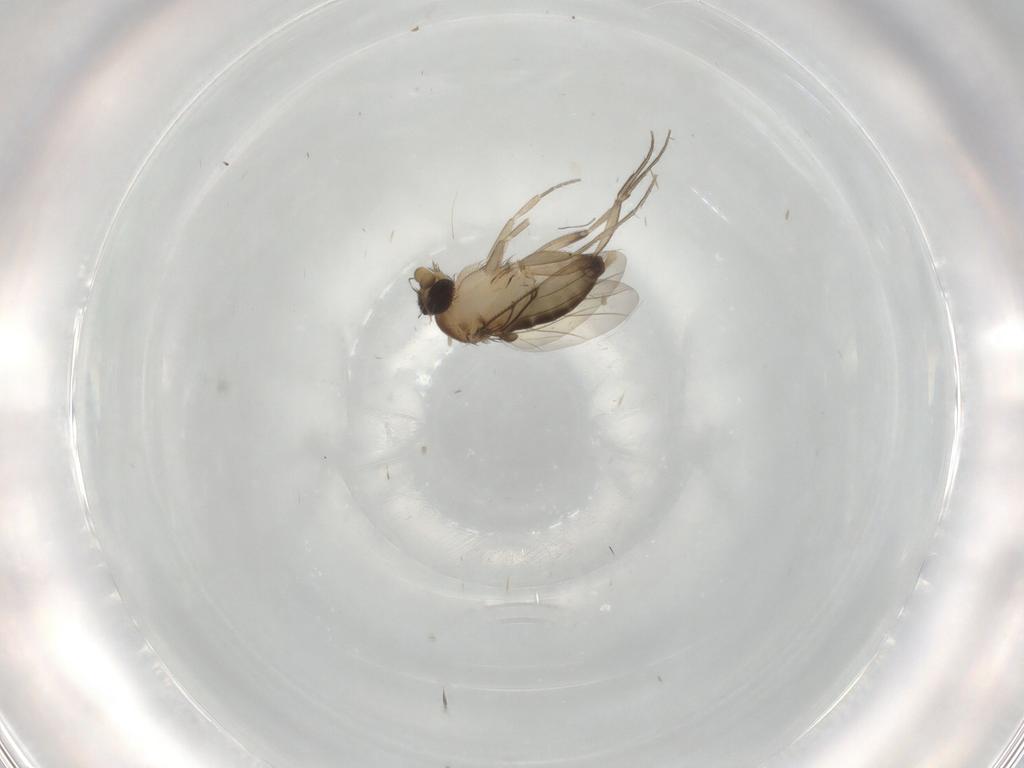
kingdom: Animalia
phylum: Arthropoda
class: Insecta
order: Diptera
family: Phoridae
